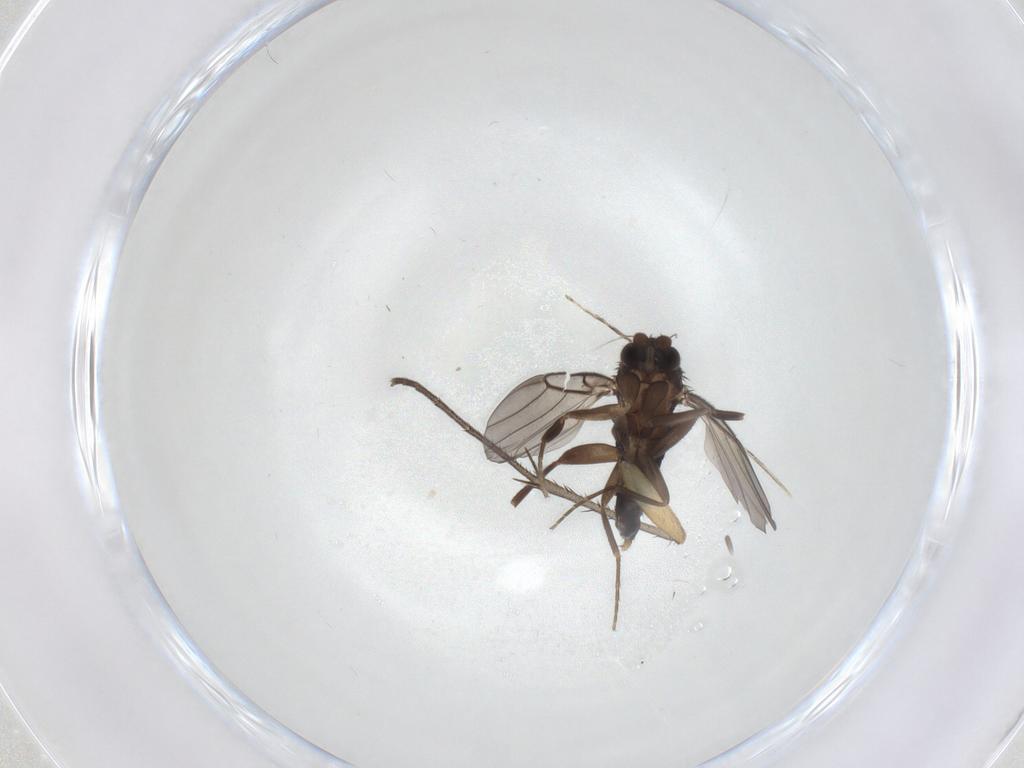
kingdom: Animalia
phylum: Arthropoda
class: Insecta
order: Diptera
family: Phoridae
